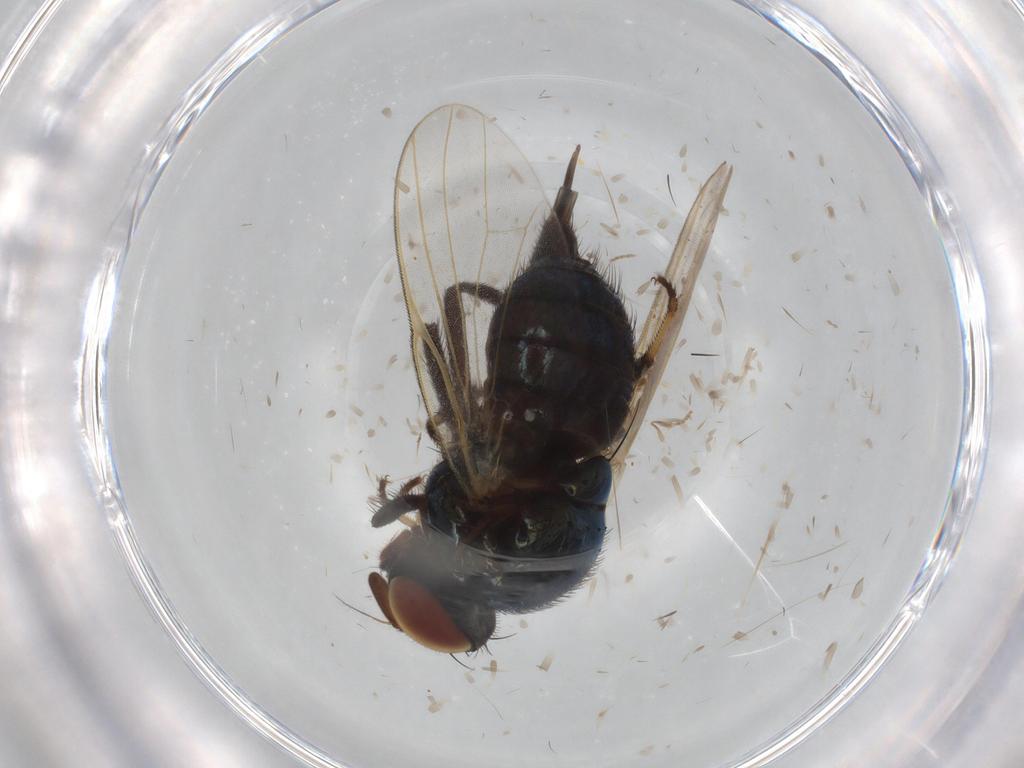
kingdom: Animalia
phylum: Arthropoda
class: Insecta
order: Diptera
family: Lonchaeidae
